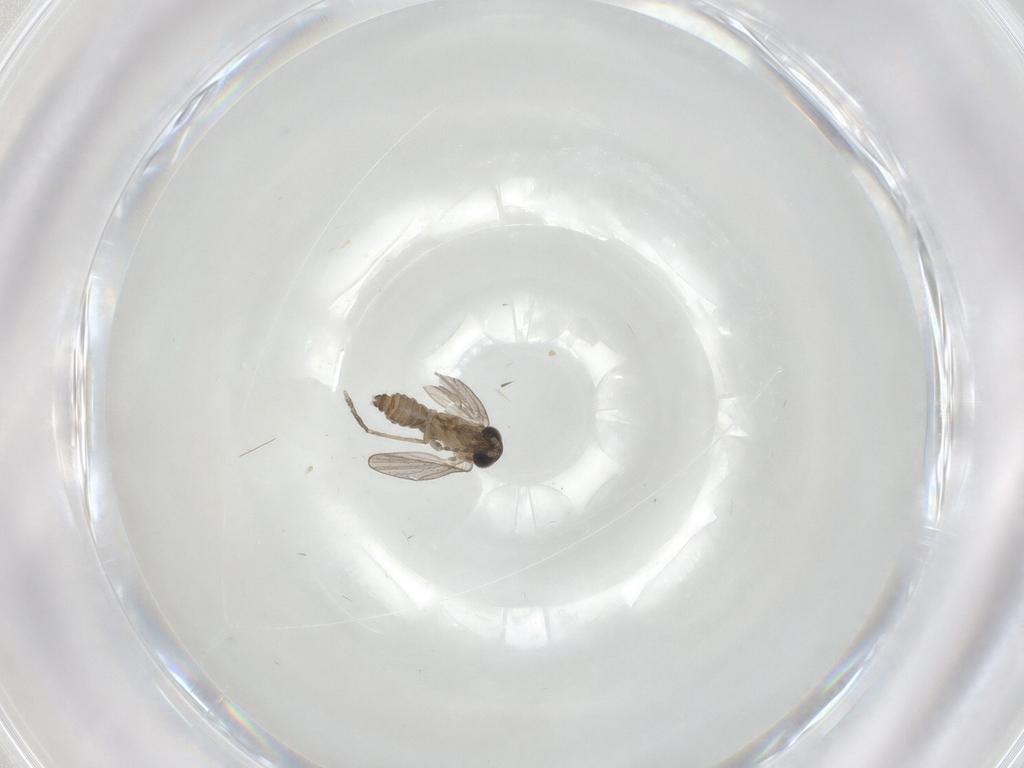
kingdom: Animalia
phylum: Arthropoda
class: Insecta
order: Diptera
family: Cecidomyiidae
